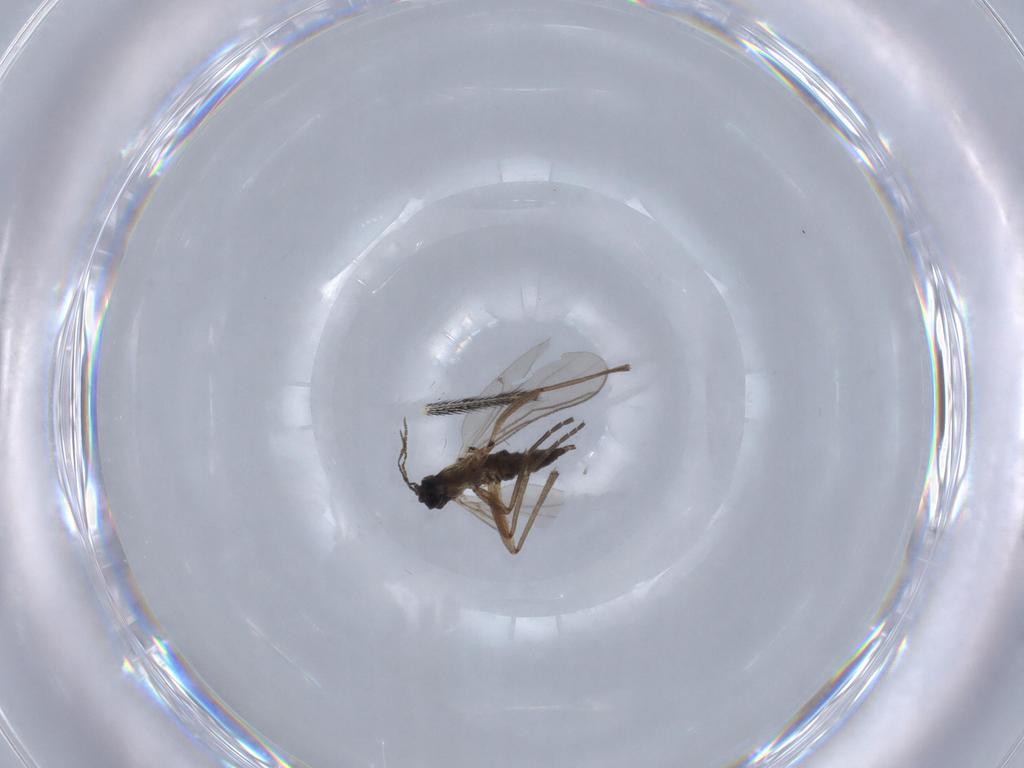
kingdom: Animalia
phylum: Arthropoda
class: Insecta
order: Diptera
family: Sciaridae
